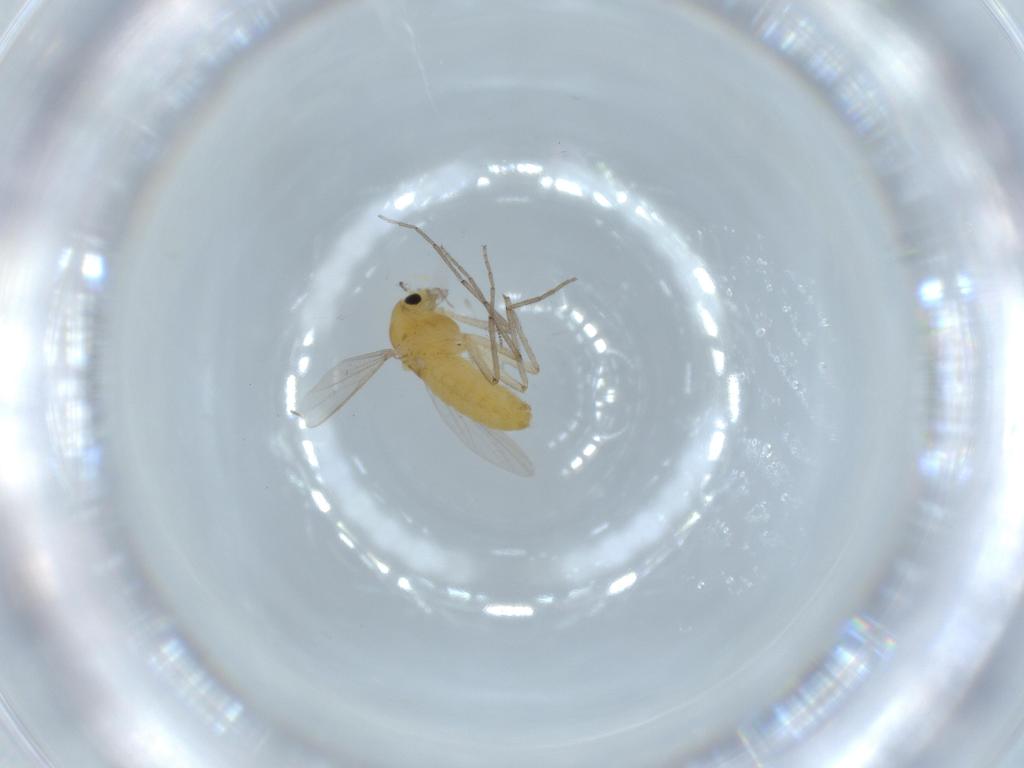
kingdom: Animalia
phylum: Arthropoda
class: Insecta
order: Diptera
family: Chironomidae
